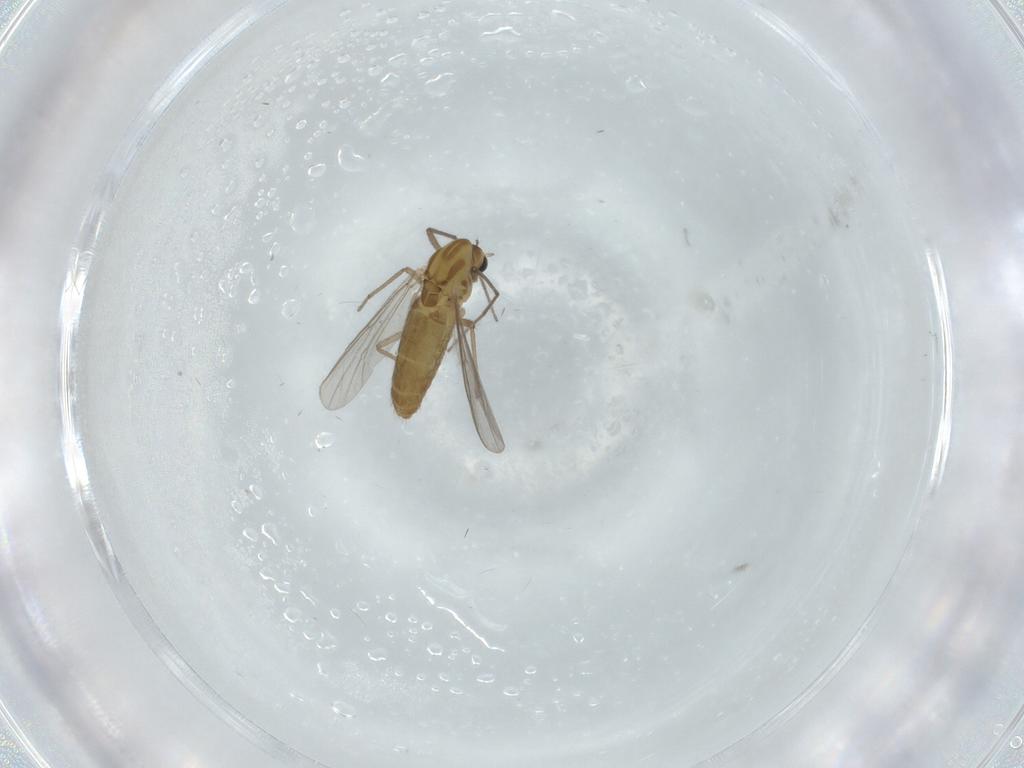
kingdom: Animalia
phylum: Arthropoda
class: Insecta
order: Diptera
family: Chironomidae
